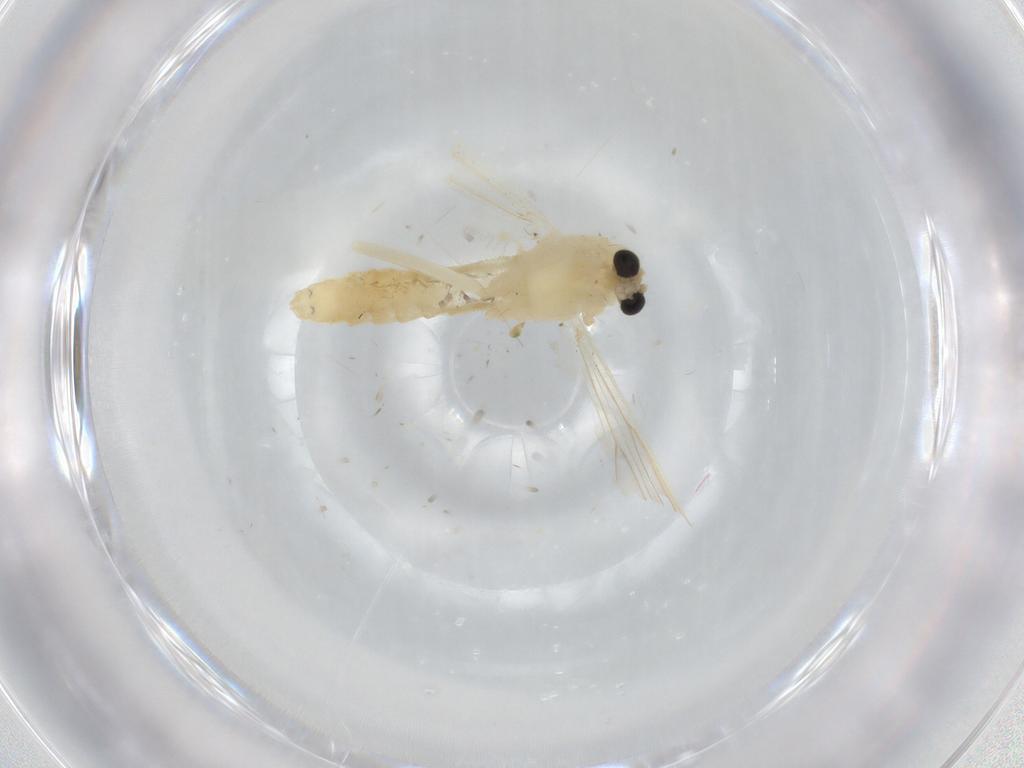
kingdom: Animalia
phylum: Arthropoda
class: Insecta
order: Diptera
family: Chironomidae
